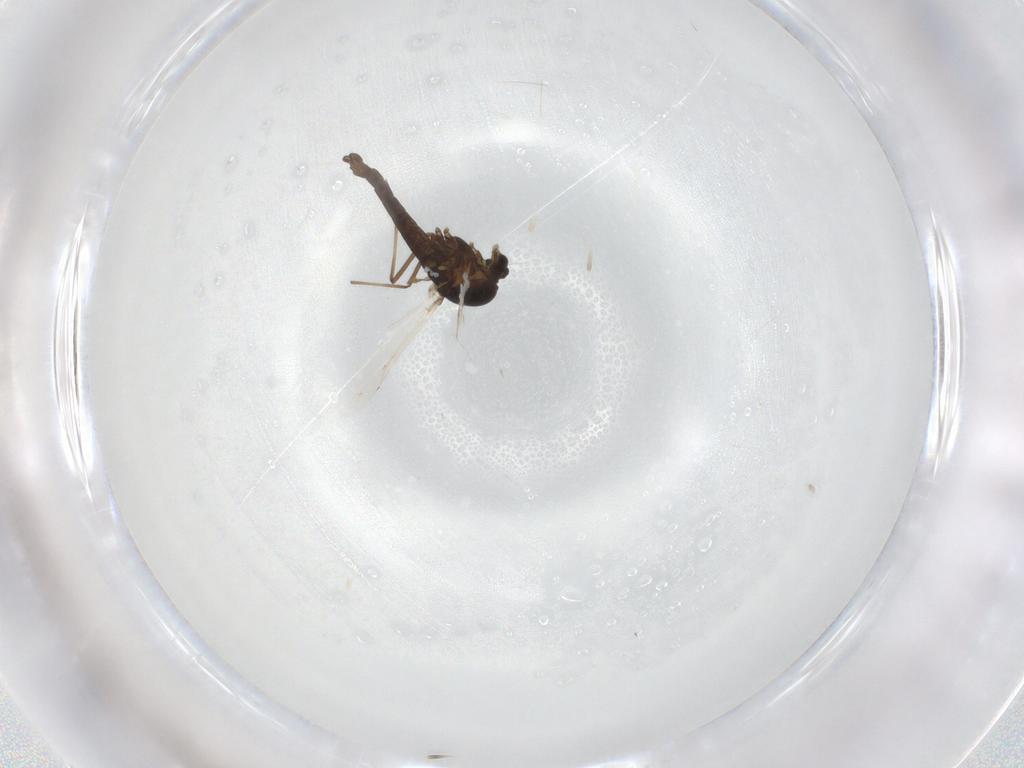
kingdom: Animalia
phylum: Arthropoda
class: Insecta
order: Diptera
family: Chironomidae
